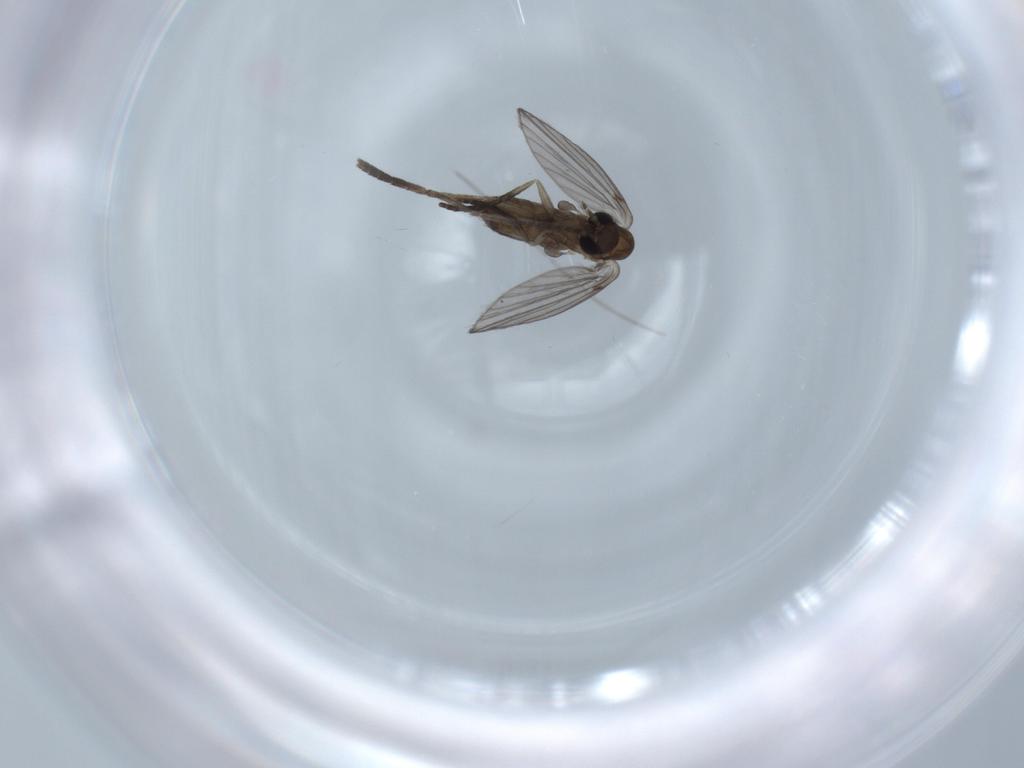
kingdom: Animalia
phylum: Arthropoda
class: Insecta
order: Diptera
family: Psychodidae
